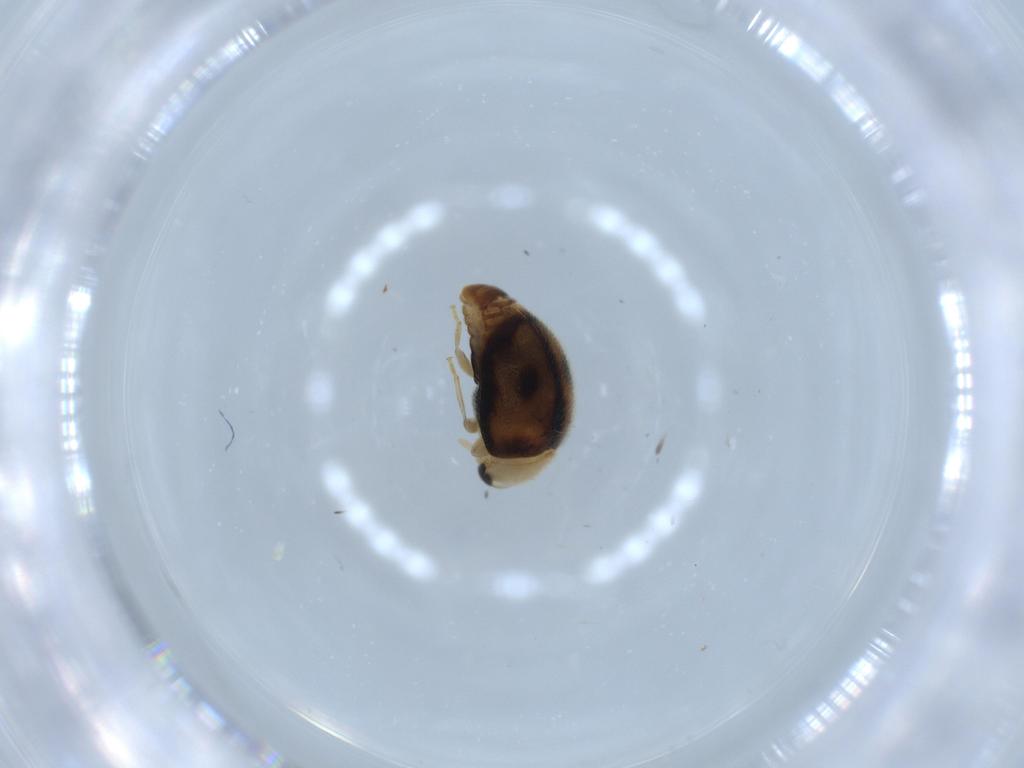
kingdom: Animalia
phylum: Arthropoda
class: Insecta
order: Coleoptera
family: Coccinellidae
